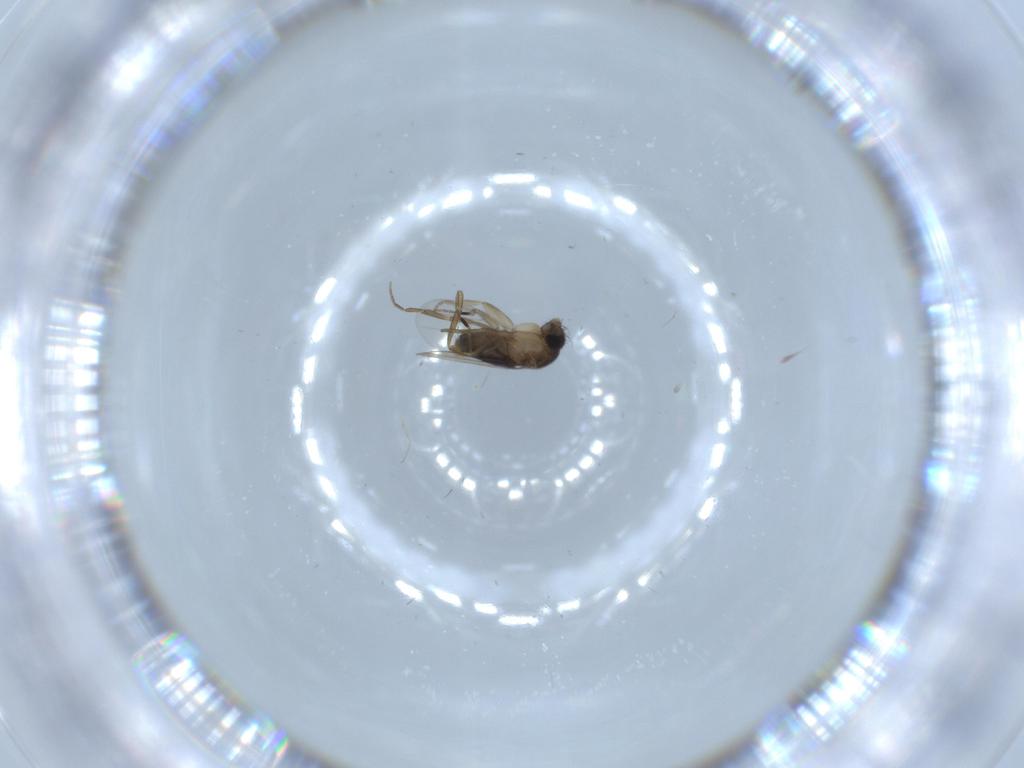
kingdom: Animalia
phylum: Arthropoda
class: Insecta
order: Diptera
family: Phoridae
